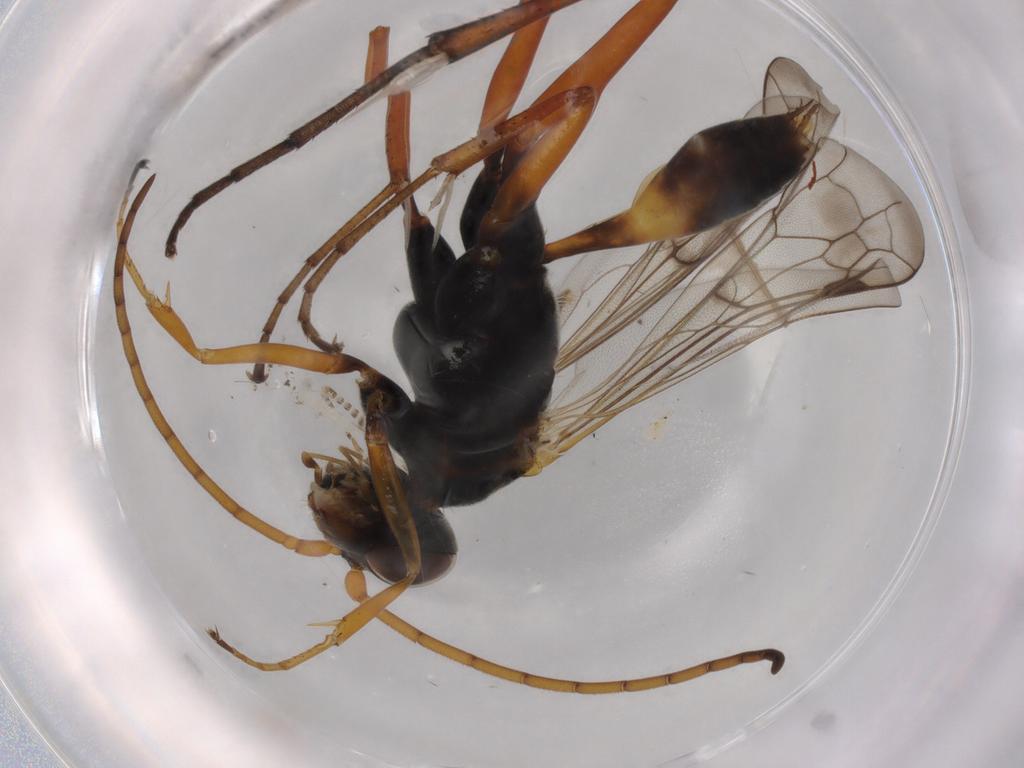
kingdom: Animalia
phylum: Arthropoda
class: Insecta
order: Hymenoptera
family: Pompilidae
